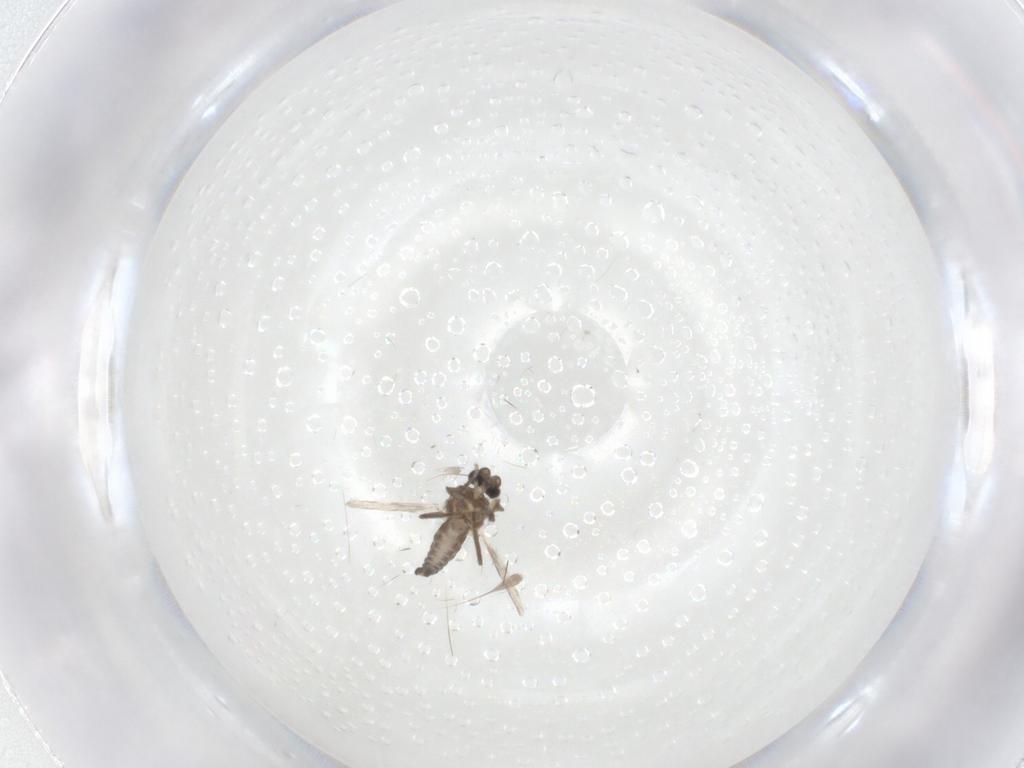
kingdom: Animalia
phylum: Arthropoda
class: Insecta
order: Diptera
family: Ceratopogonidae
